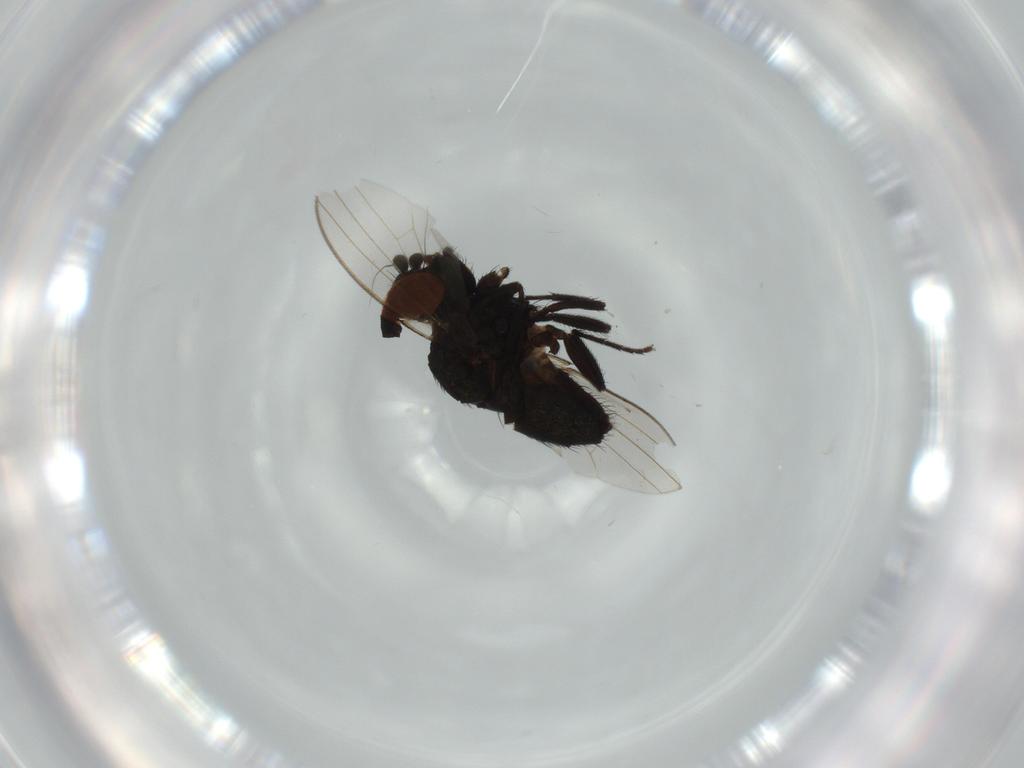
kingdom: Animalia
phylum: Arthropoda
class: Insecta
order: Diptera
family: Milichiidae
